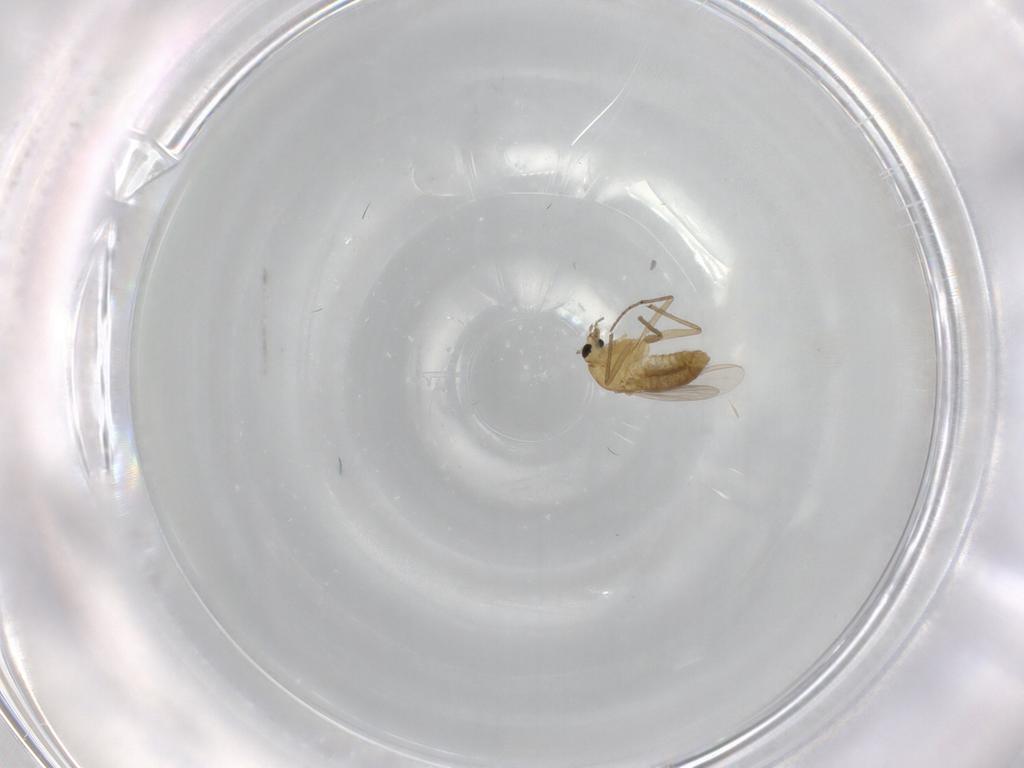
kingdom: Animalia
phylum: Arthropoda
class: Insecta
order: Diptera
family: Chironomidae
